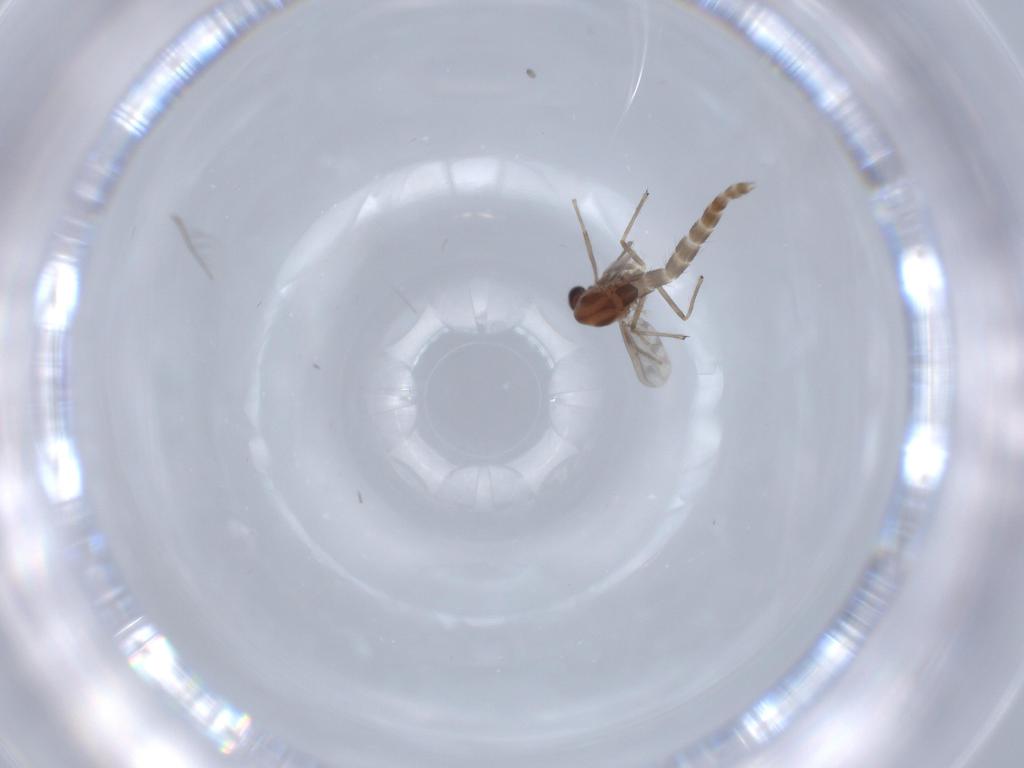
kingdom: Animalia
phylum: Arthropoda
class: Insecta
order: Diptera
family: Chironomidae
